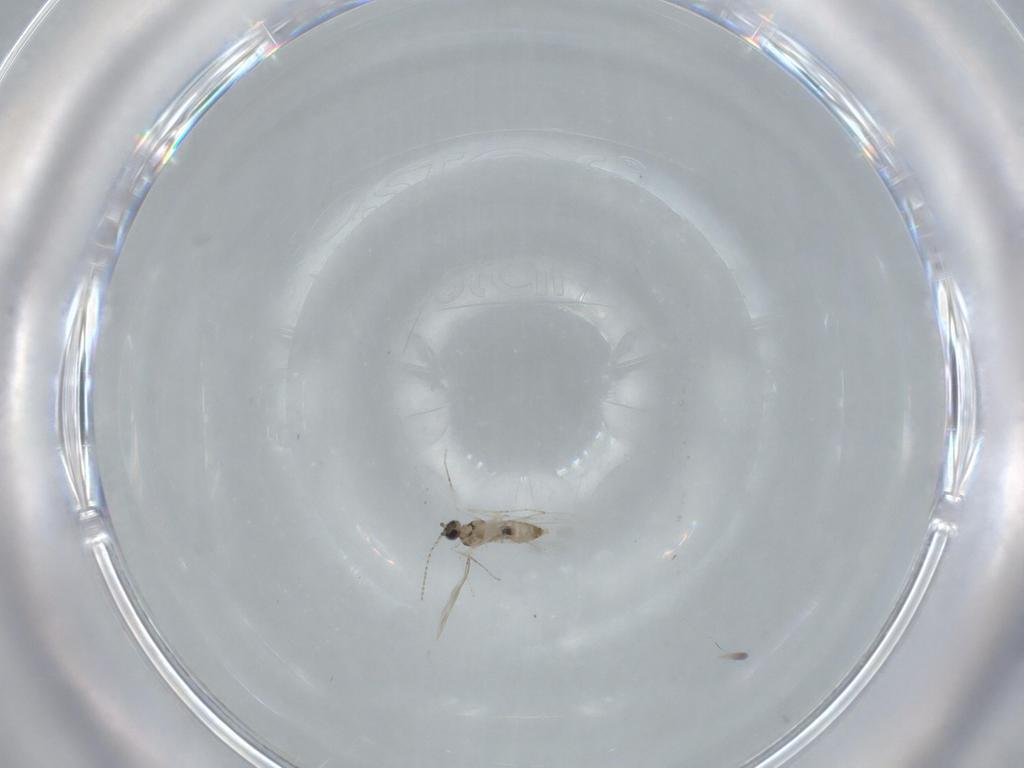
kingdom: Animalia
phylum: Arthropoda
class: Insecta
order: Diptera
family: Cecidomyiidae
